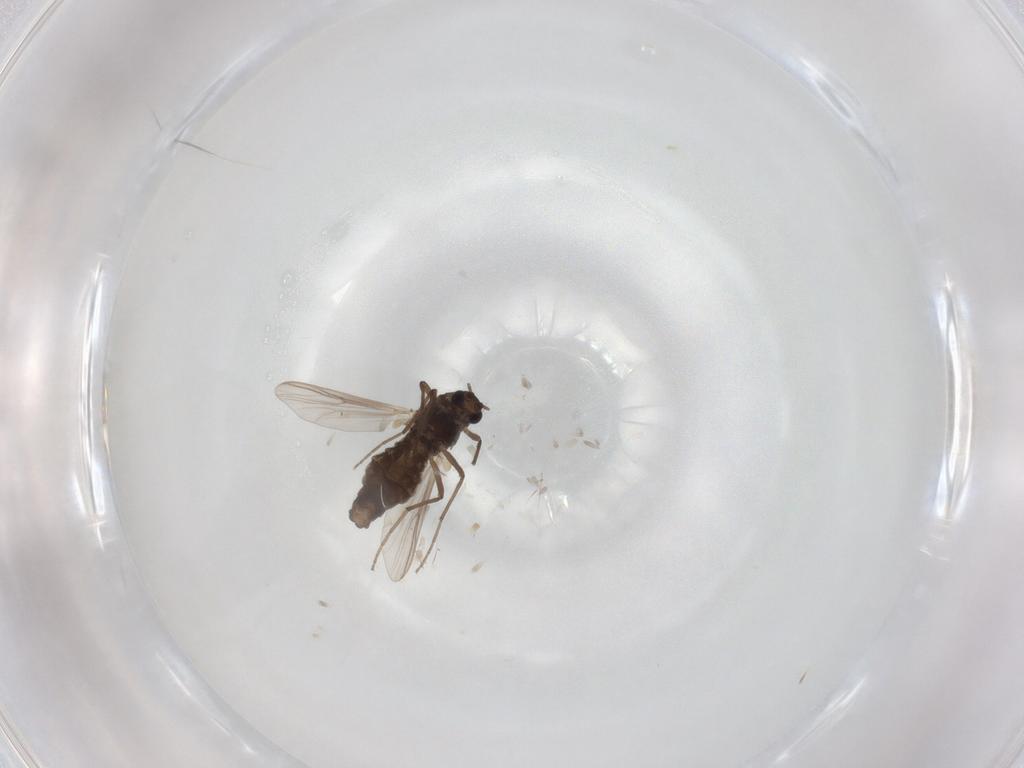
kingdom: Animalia
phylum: Arthropoda
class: Insecta
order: Diptera
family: Chironomidae
